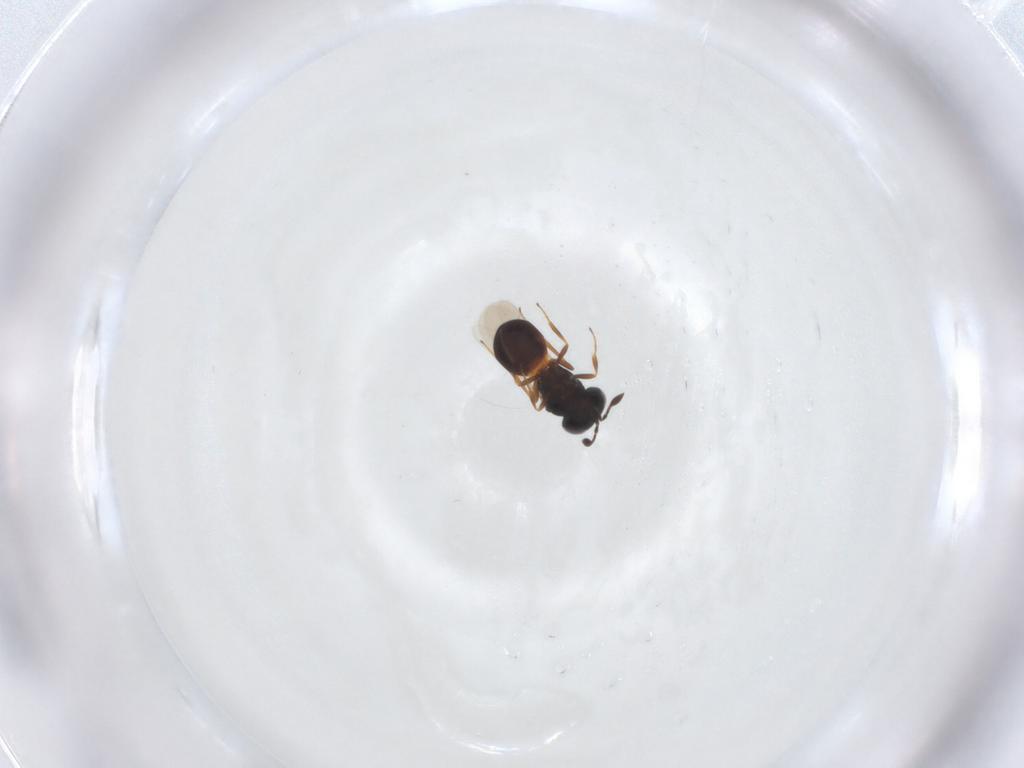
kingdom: Animalia
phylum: Arthropoda
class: Arachnida
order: Araneae
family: Pholcidae
